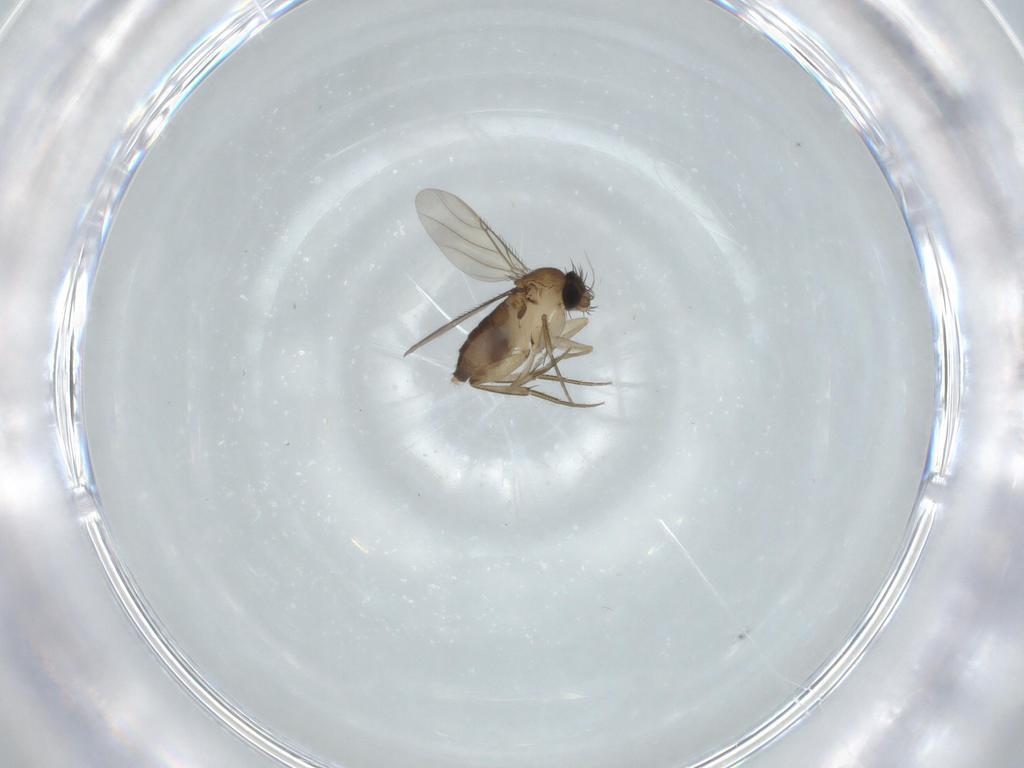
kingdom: Animalia
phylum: Arthropoda
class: Insecta
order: Diptera
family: Phoridae
